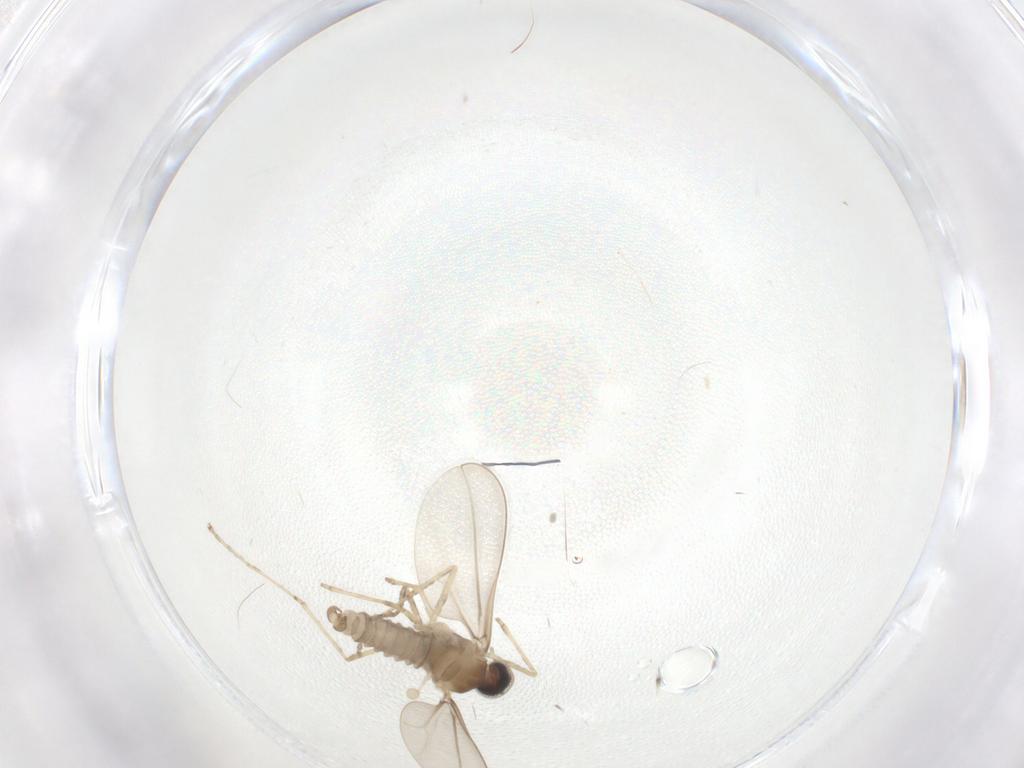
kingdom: Animalia
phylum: Arthropoda
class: Insecta
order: Diptera
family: Cecidomyiidae
